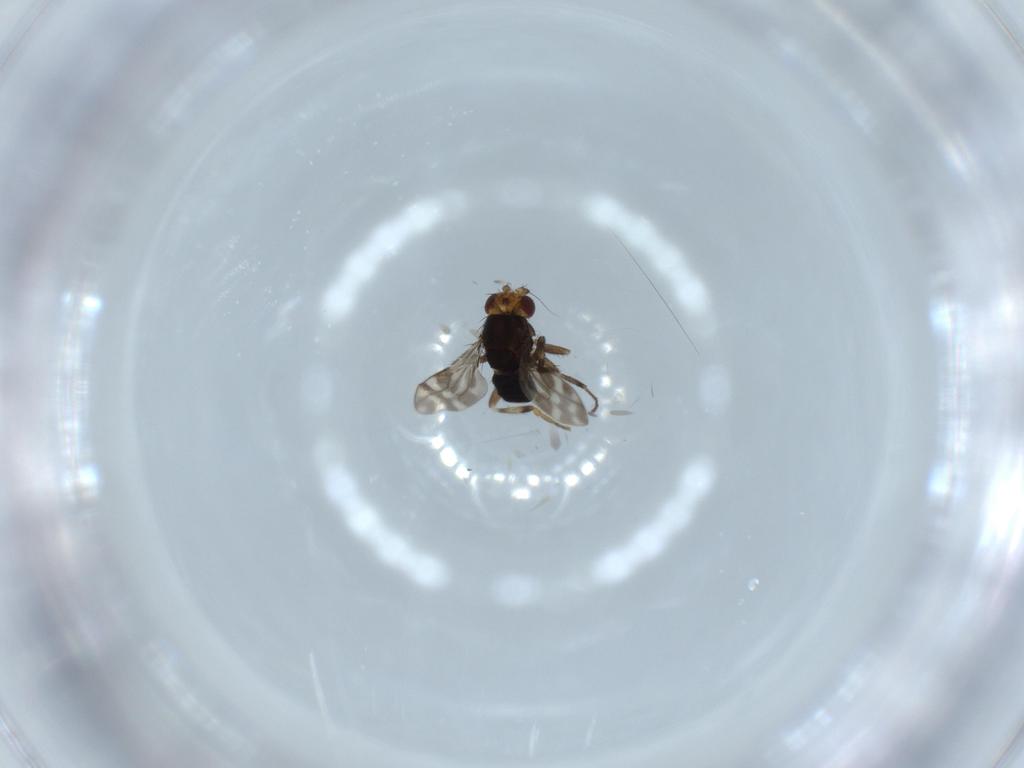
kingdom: Animalia
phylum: Arthropoda
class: Insecta
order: Diptera
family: Sphaeroceridae
